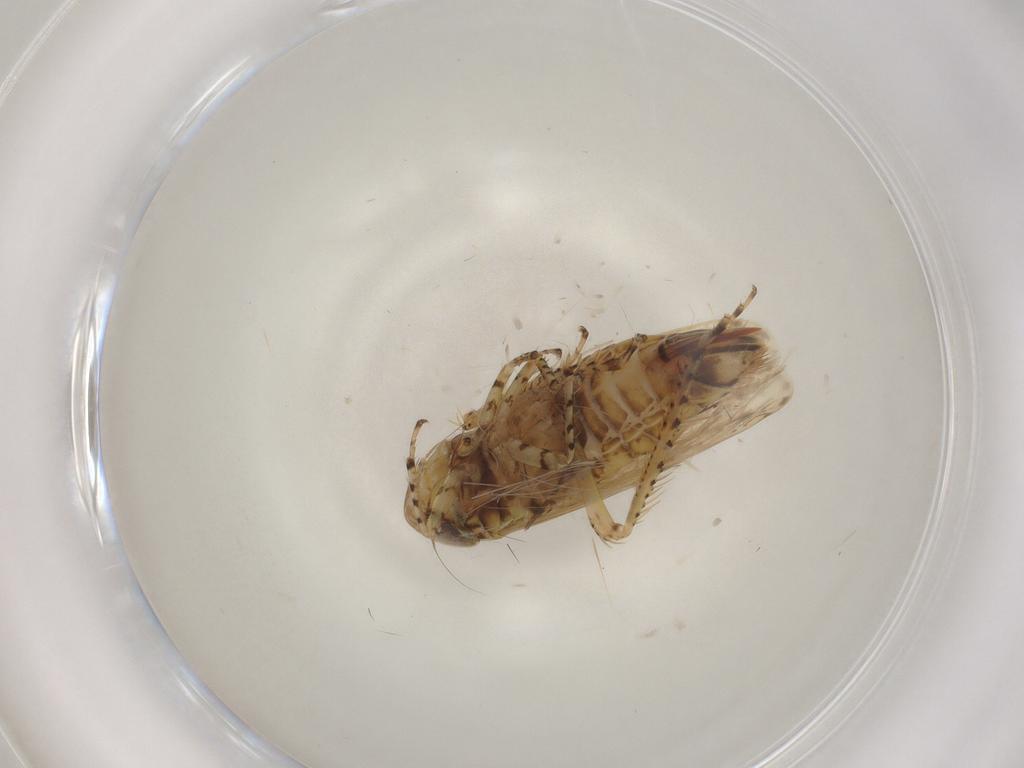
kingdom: Animalia
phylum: Arthropoda
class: Insecta
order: Hemiptera
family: Cicadellidae
